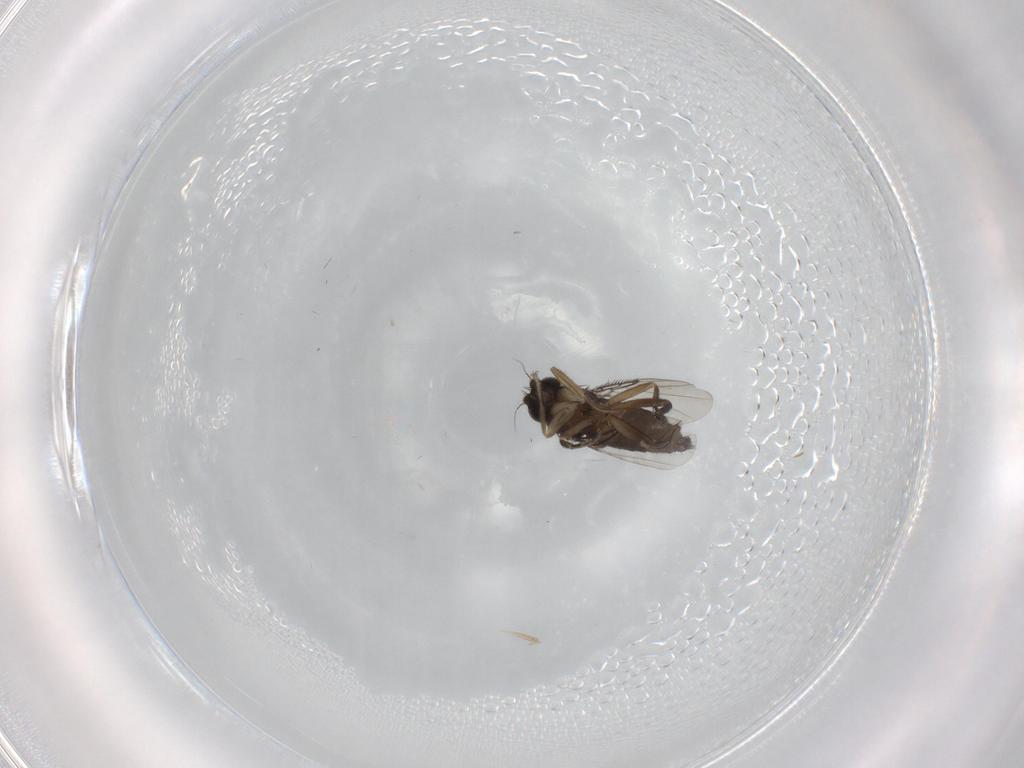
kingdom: Animalia
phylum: Arthropoda
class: Insecta
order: Diptera
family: Phoridae
